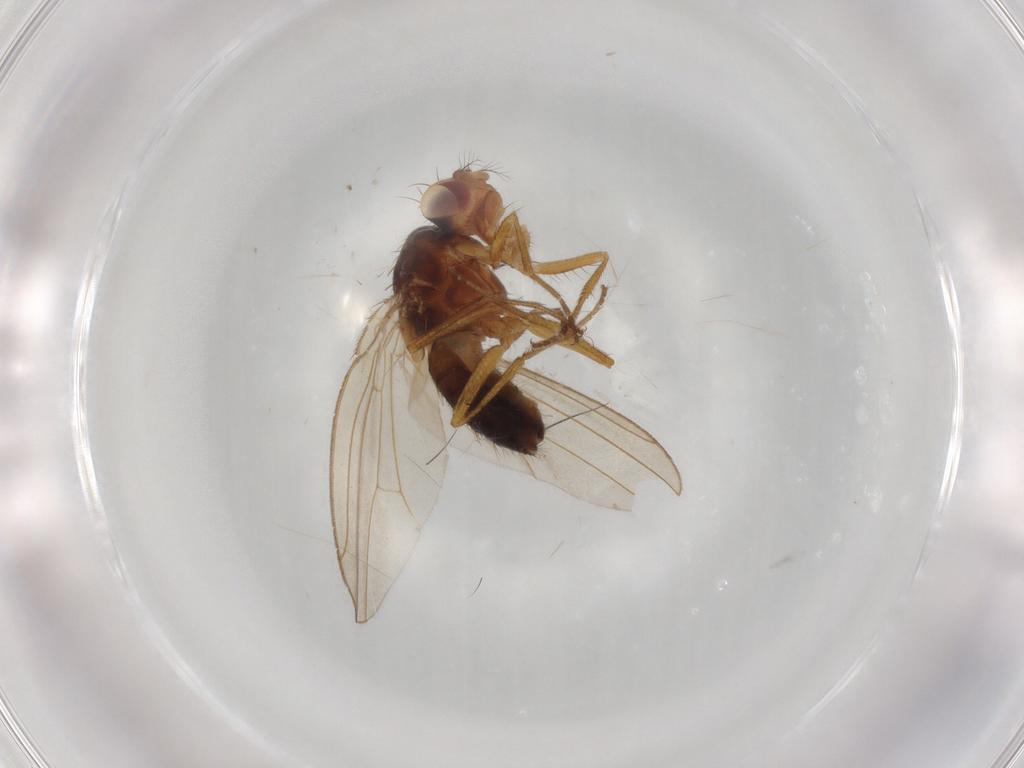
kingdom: Animalia
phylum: Arthropoda
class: Insecta
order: Diptera
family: Drosophilidae
